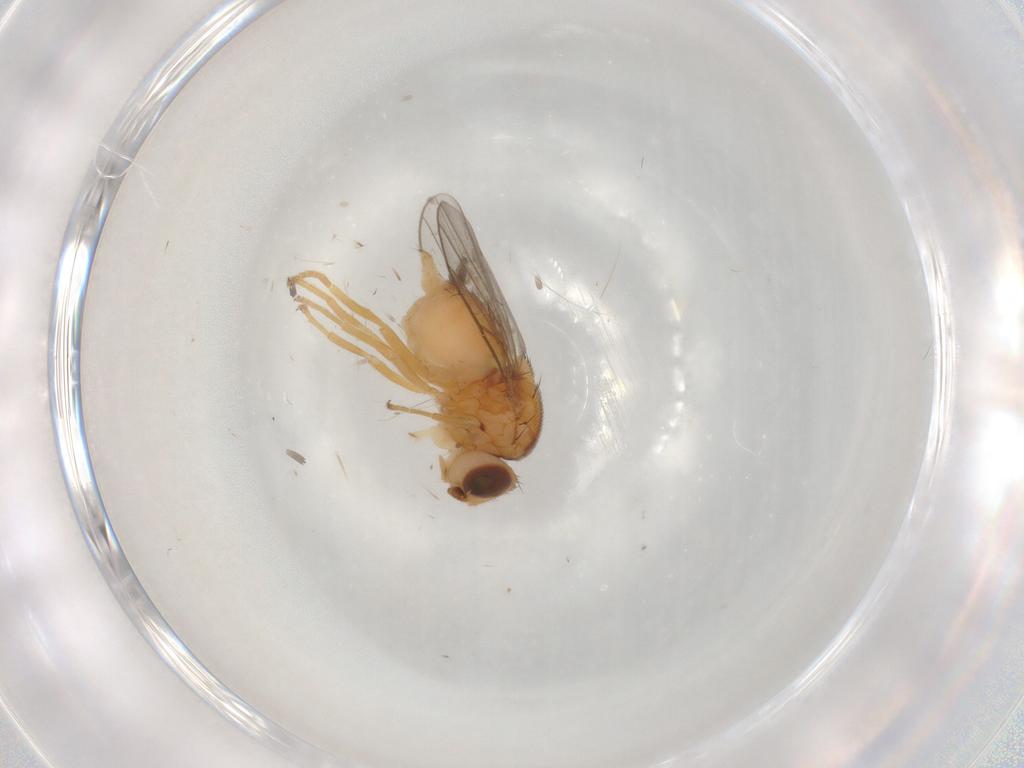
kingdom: Animalia
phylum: Arthropoda
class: Insecta
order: Diptera
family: Chloropidae
